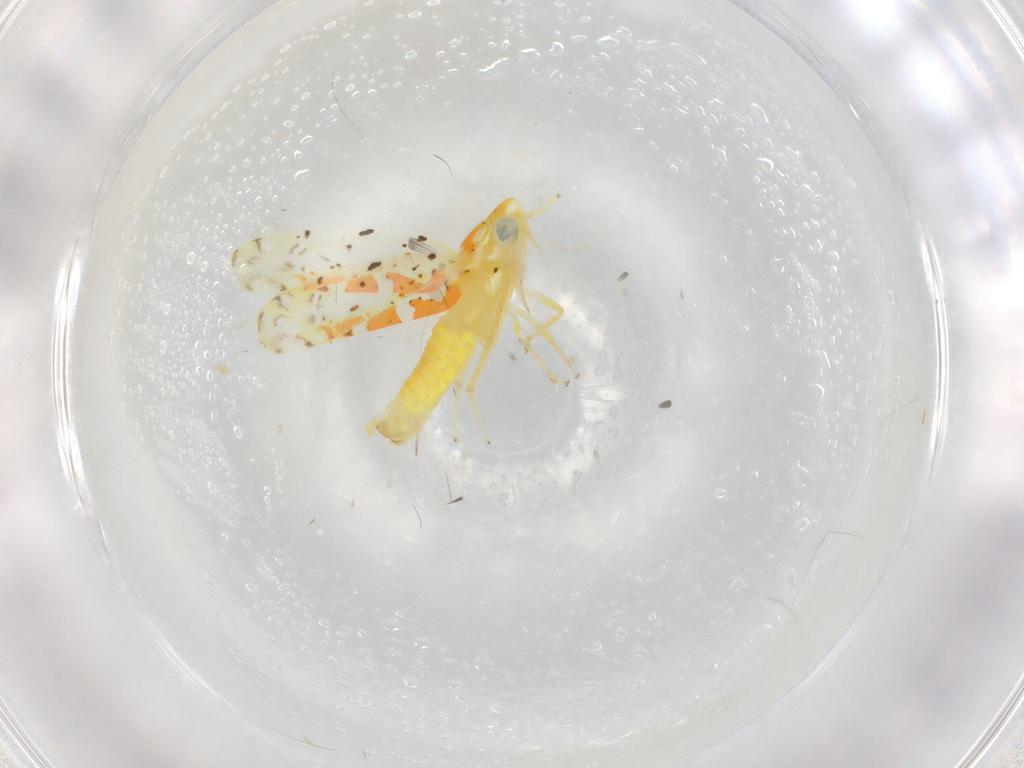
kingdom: Animalia
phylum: Arthropoda
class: Insecta
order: Hemiptera
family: Cicadellidae
